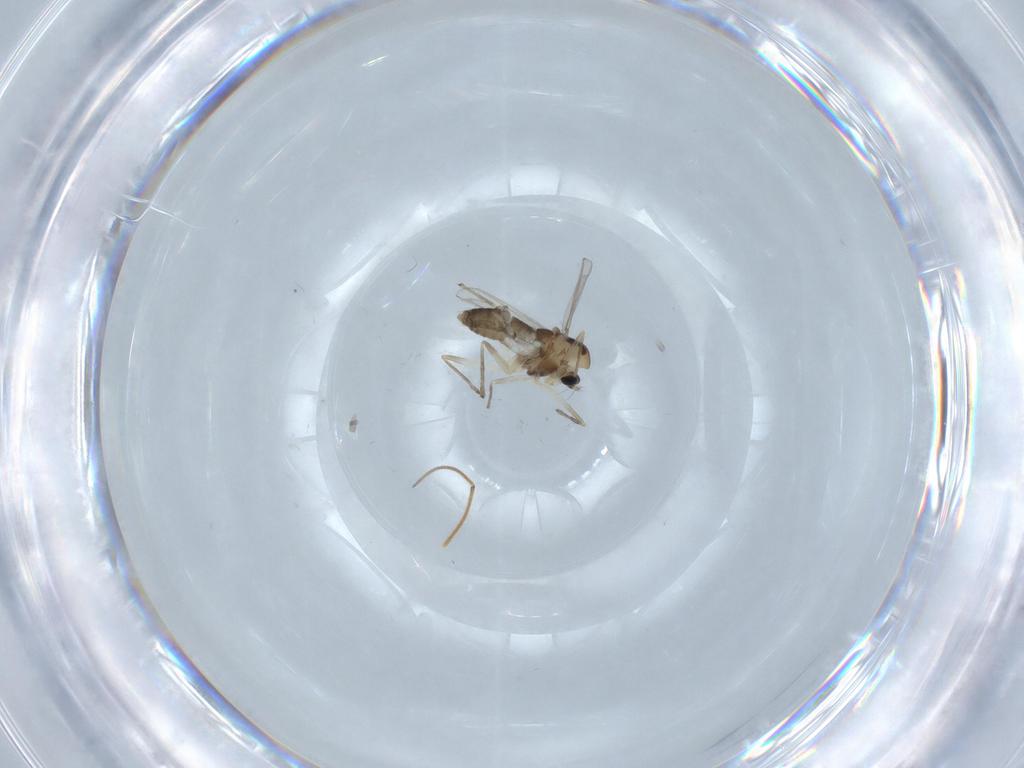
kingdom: Animalia
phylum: Arthropoda
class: Insecta
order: Diptera
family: Chironomidae
